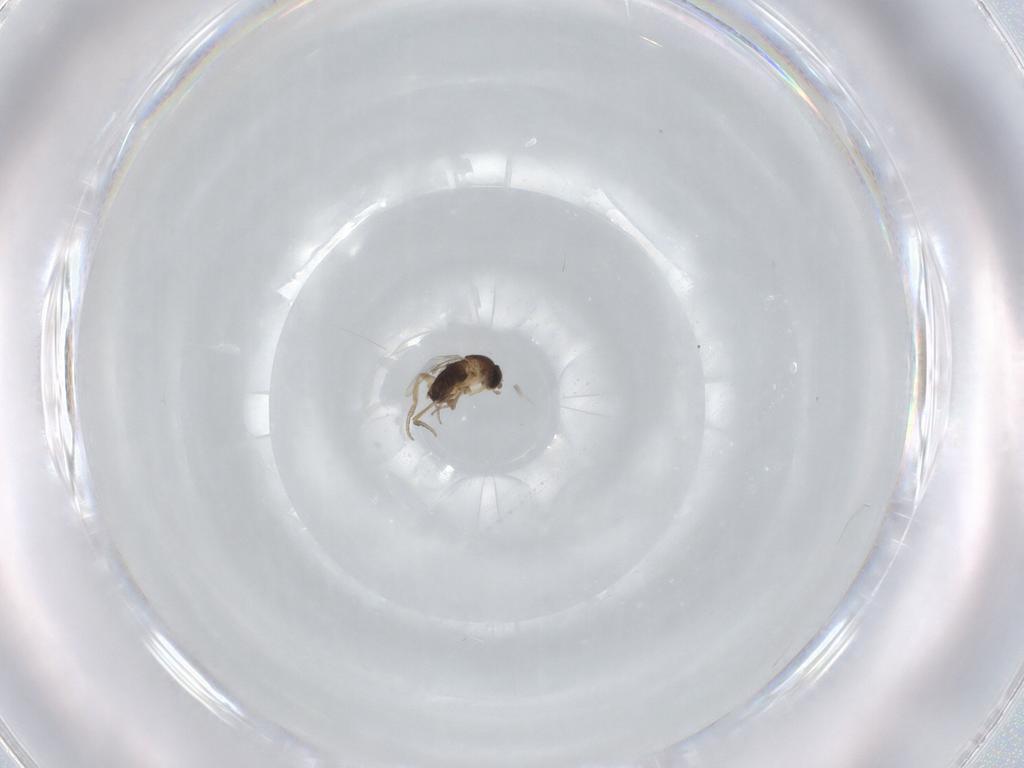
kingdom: Animalia
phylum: Arthropoda
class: Insecta
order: Diptera
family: Phoridae
